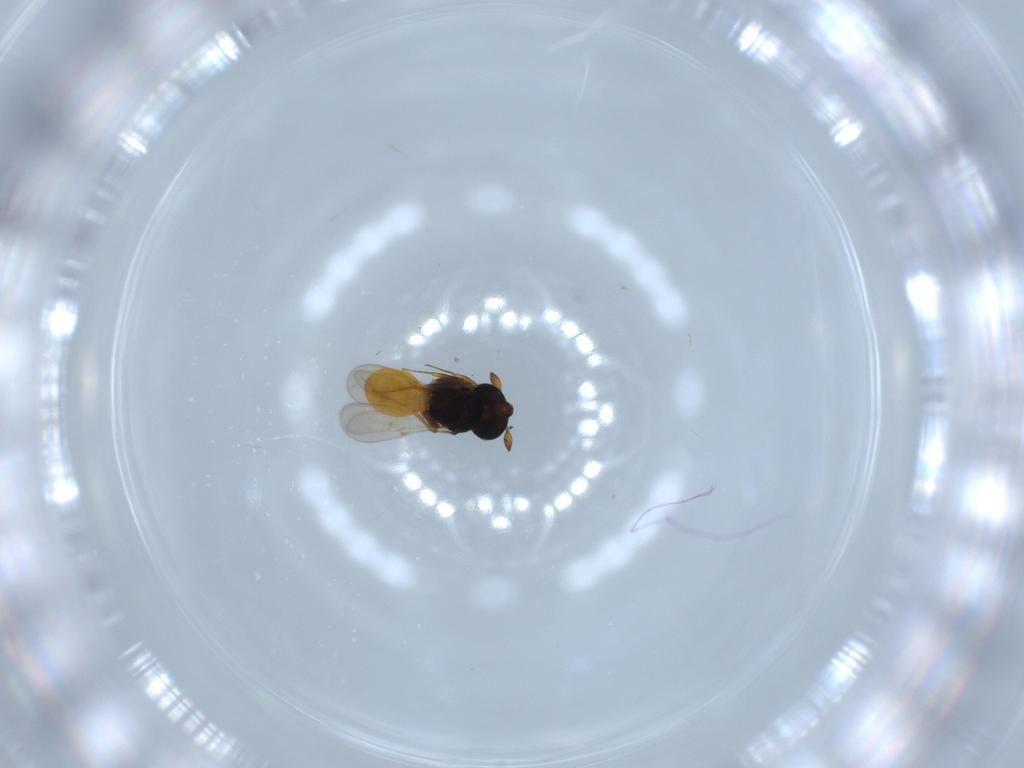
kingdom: Animalia
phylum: Arthropoda
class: Insecta
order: Hymenoptera
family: Scelionidae
